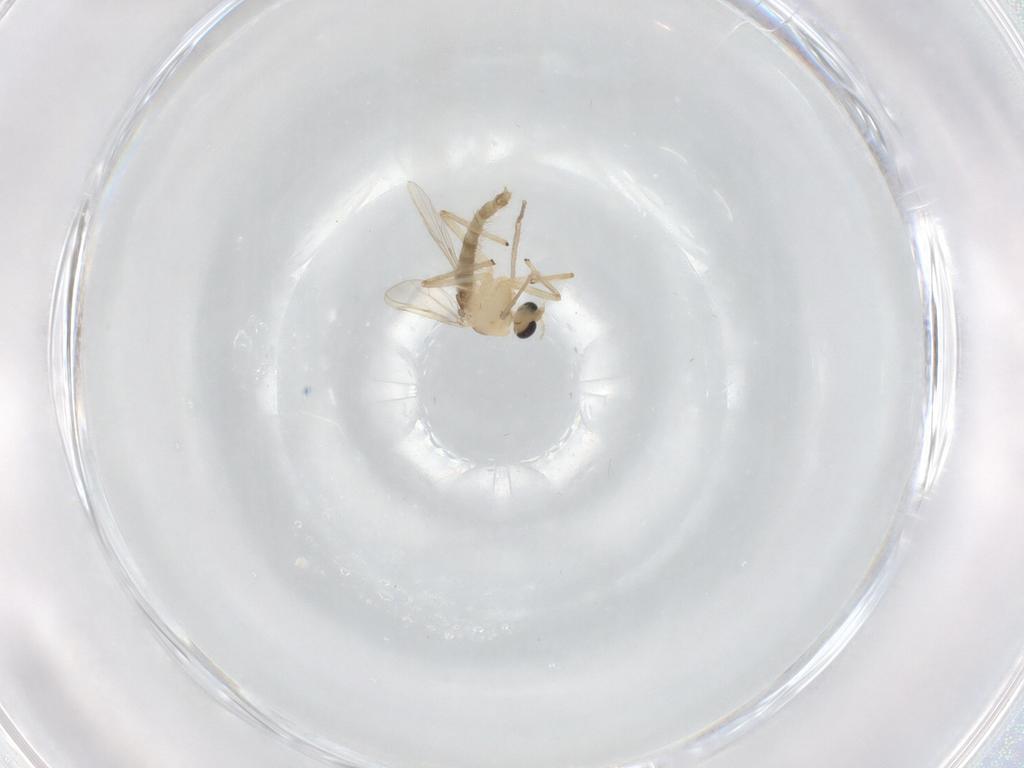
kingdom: Animalia
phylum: Arthropoda
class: Insecta
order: Diptera
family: Chironomidae
